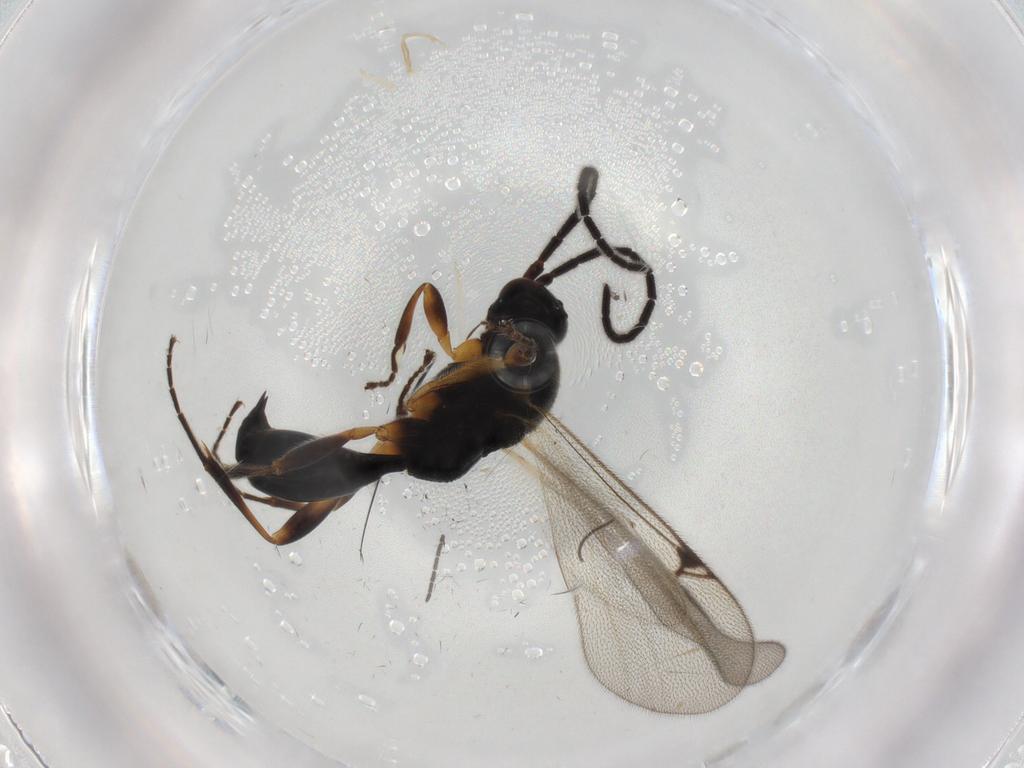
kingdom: Animalia
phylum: Arthropoda
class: Insecta
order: Hymenoptera
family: Proctotrupidae
